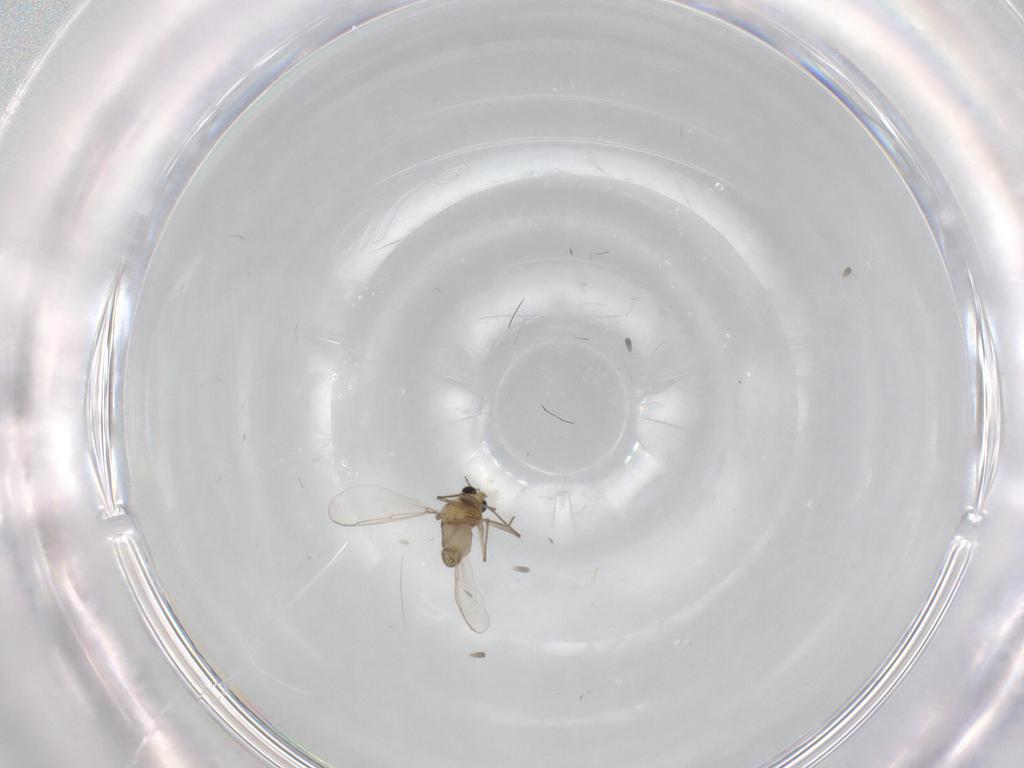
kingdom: Animalia
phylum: Arthropoda
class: Insecta
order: Diptera
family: Chironomidae
